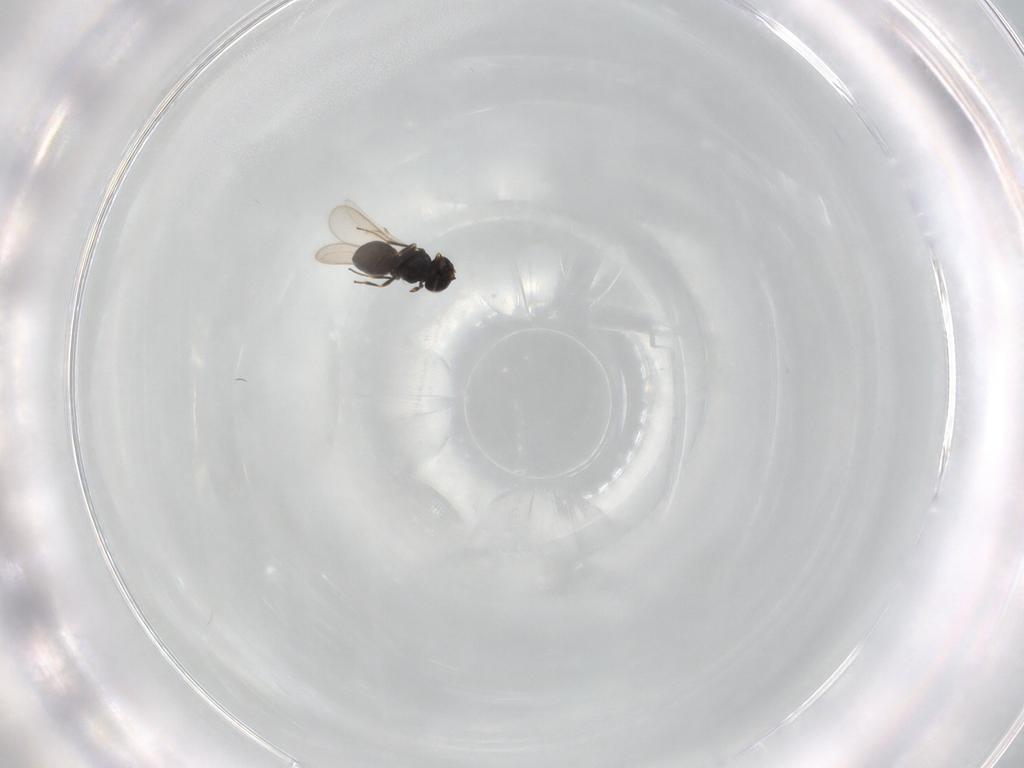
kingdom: Animalia
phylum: Arthropoda
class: Insecta
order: Hymenoptera
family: Scelionidae
